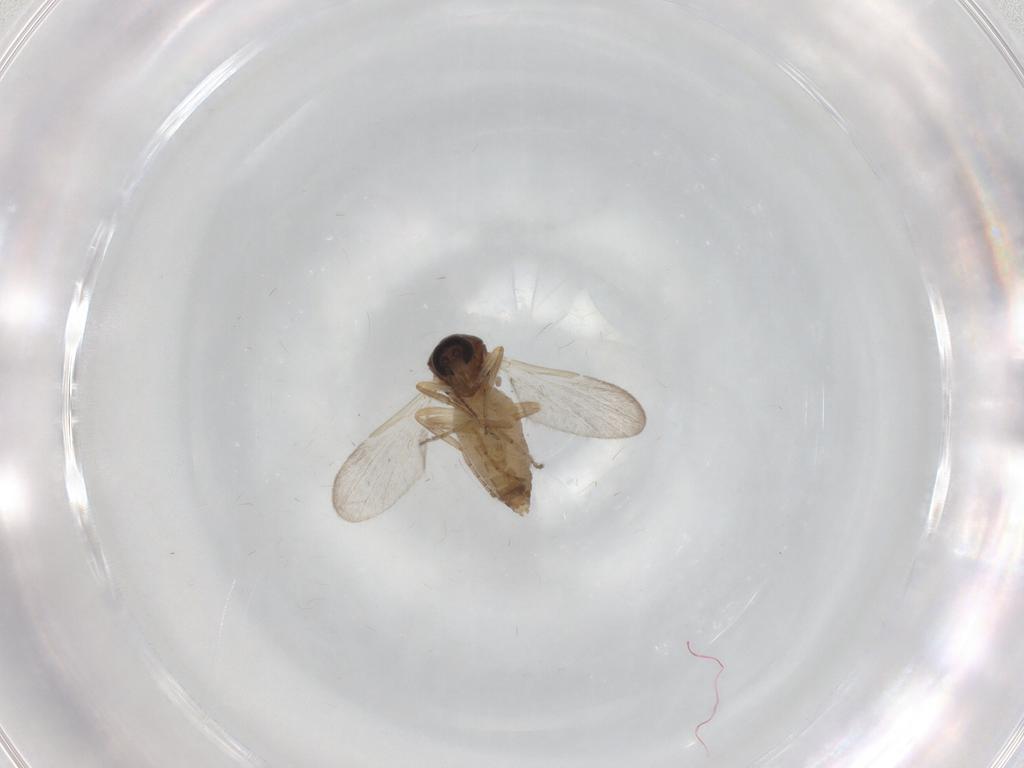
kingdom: Animalia
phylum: Arthropoda
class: Insecta
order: Diptera
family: Ceratopogonidae
